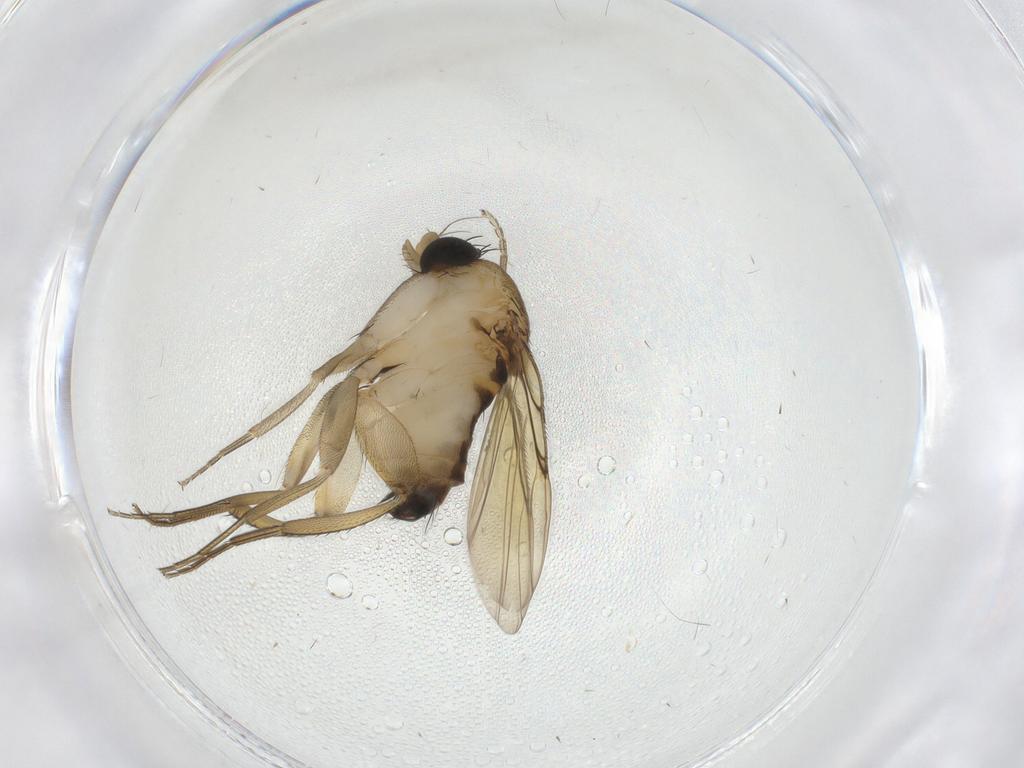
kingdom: Animalia
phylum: Arthropoda
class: Insecta
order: Diptera
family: Phoridae
